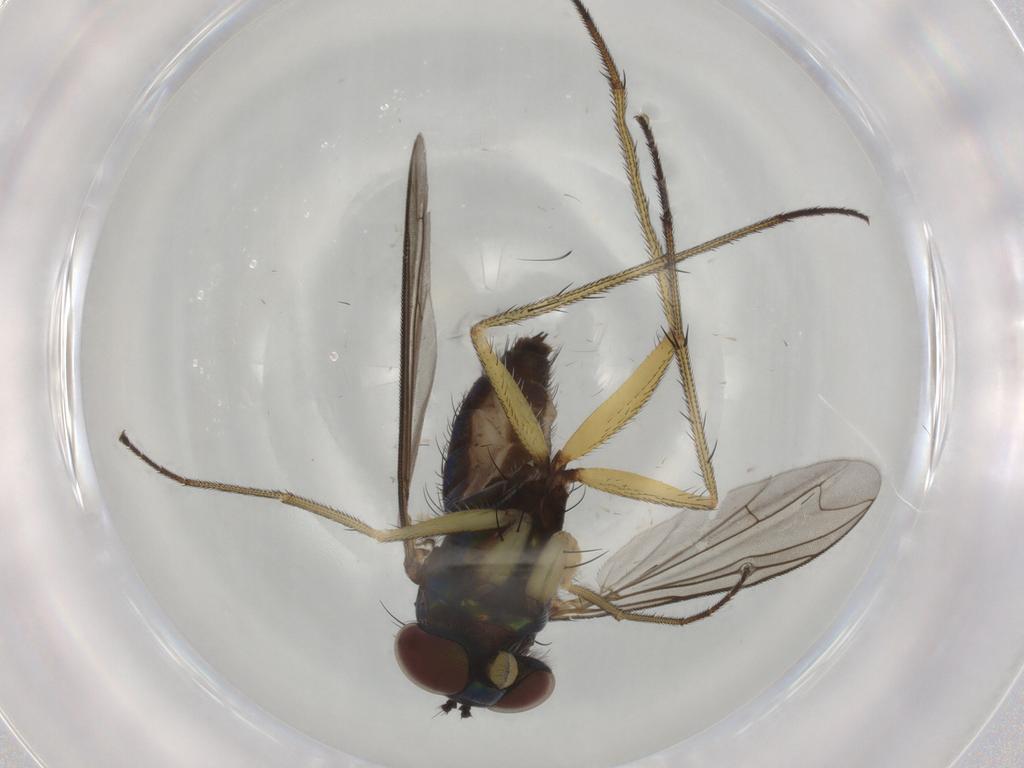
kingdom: Animalia
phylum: Arthropoda
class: Insecta
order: Diptera
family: Dolichopodidae
